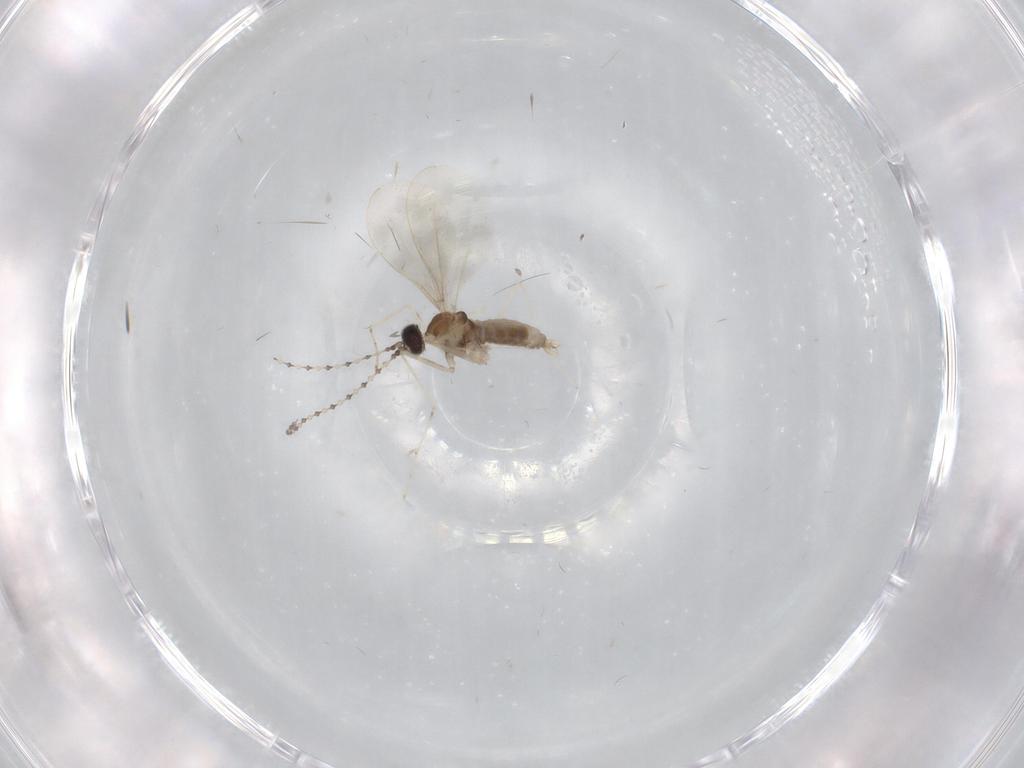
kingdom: Animalia
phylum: Arthropoda
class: Insecta
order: Diptera
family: Cecidomyiidae
